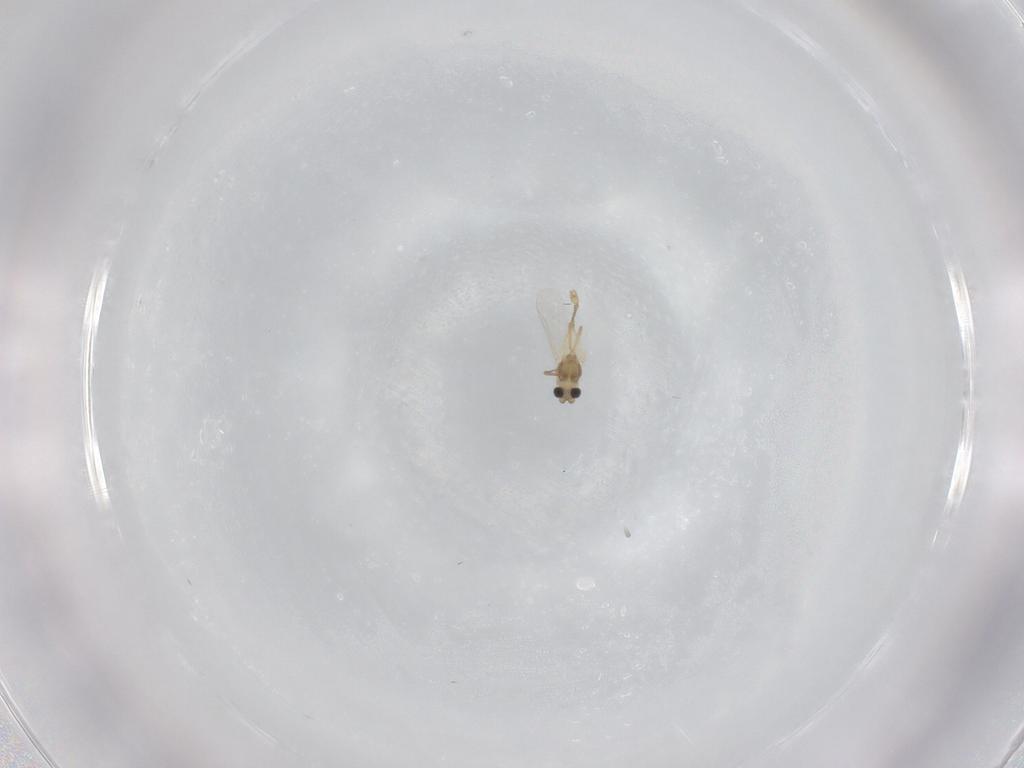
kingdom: Animalia
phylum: Arthropoda
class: Insecta
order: Diptera
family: Chironomidae
